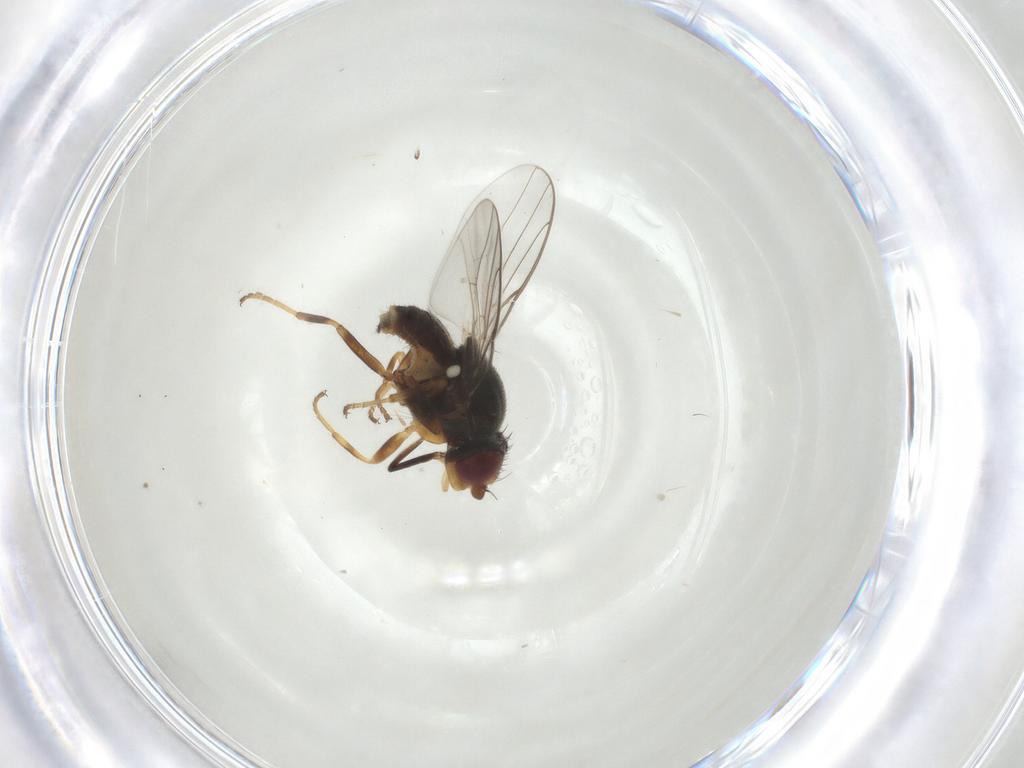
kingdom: Animalia
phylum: Arthropoda
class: Insecta
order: Diptera
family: Chloropidae
